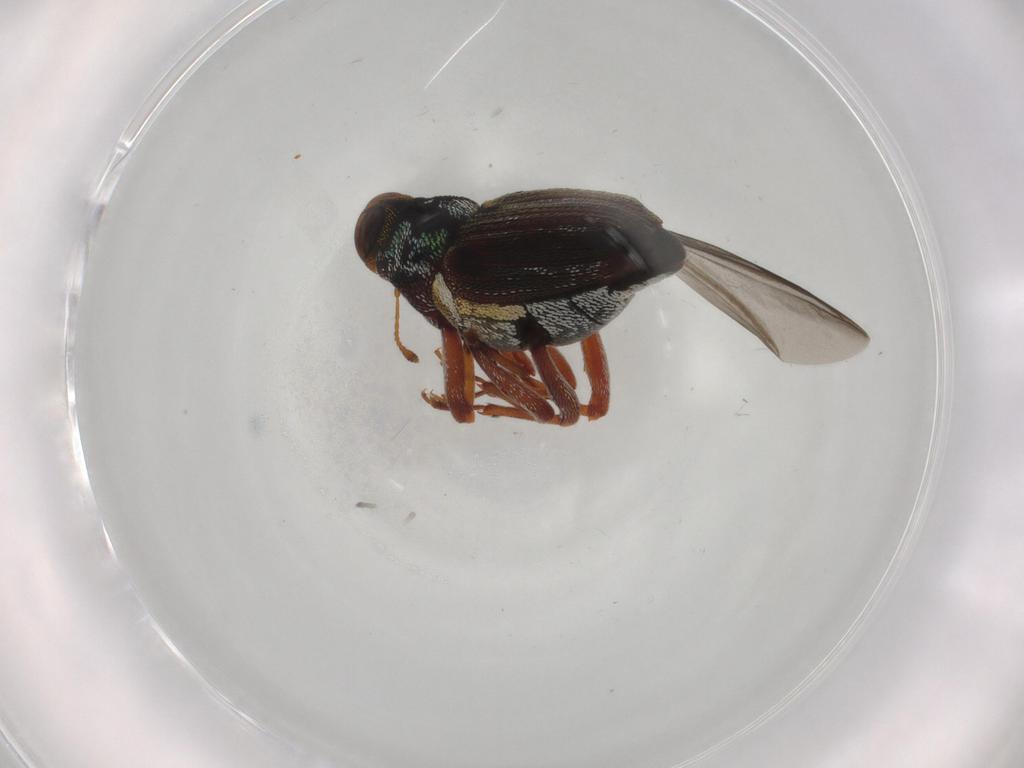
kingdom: Animalia
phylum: Arthropoda
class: Insecta
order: Coleoptera
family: Curculionidae
